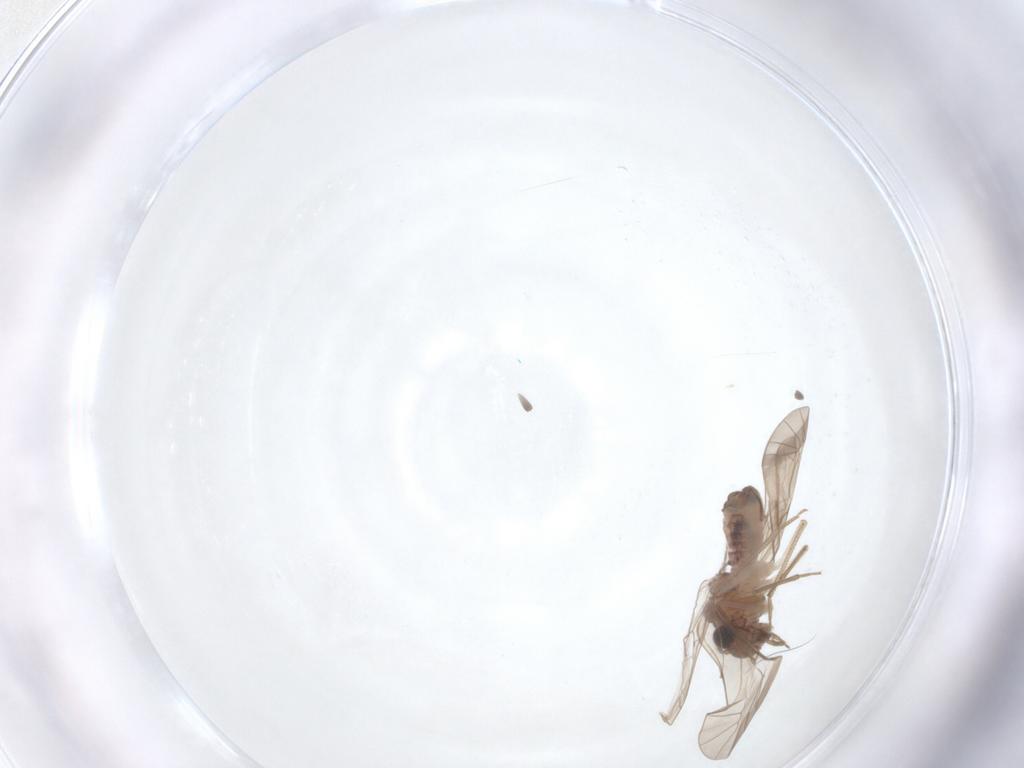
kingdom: Animalia
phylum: Arthropoda
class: Insecta
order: Psocodea
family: Peripsocidae
